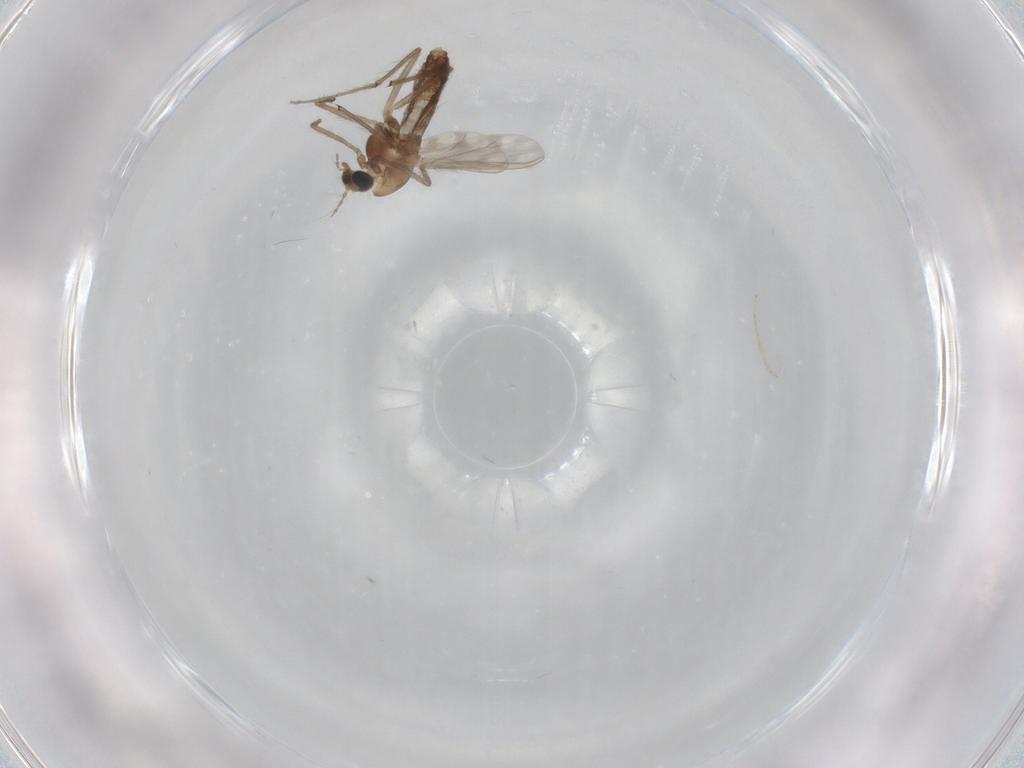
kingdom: Animalia
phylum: Arthropoda
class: Insecta
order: Diptera
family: Chironomidae
